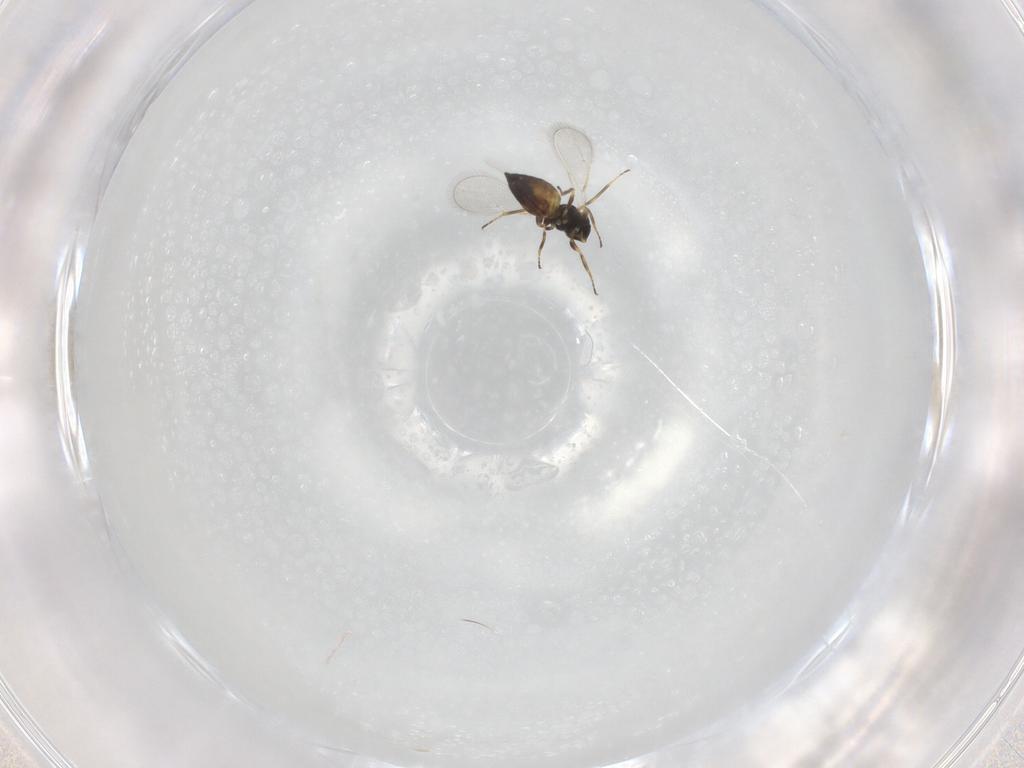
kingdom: Animalia
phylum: Arthropoda
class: Insecta
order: Hymenoptera
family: Eulophidae
